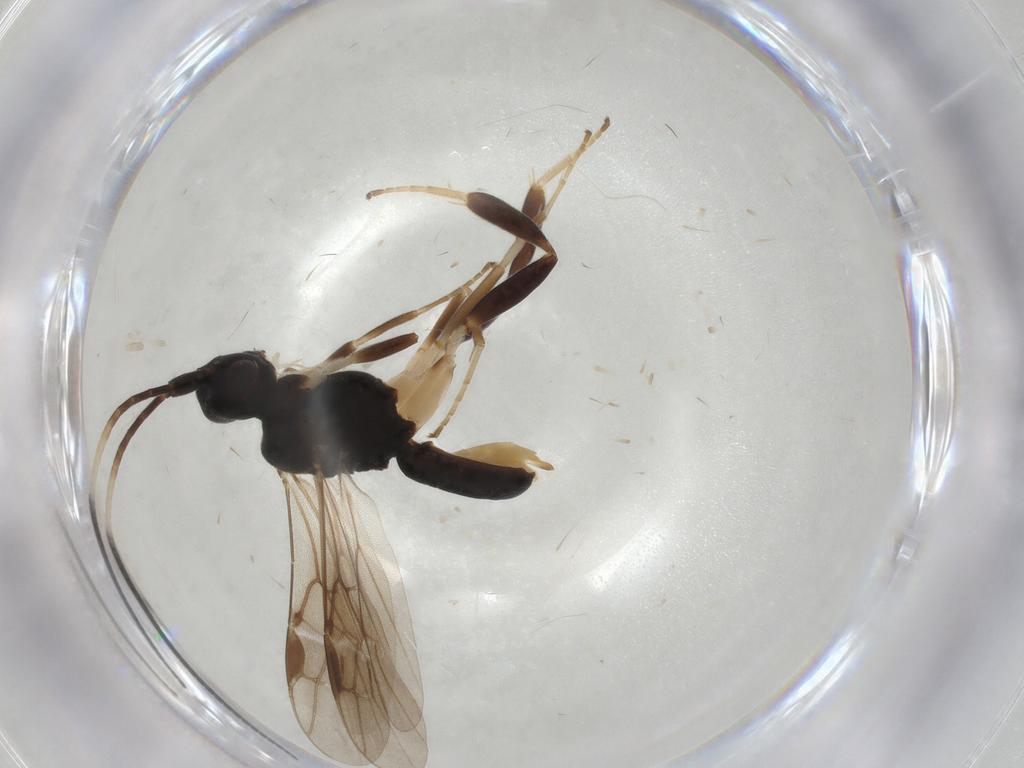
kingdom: Animalia
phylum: Arthropoda
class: Insecta
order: Hymenoptera
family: Braconidae
